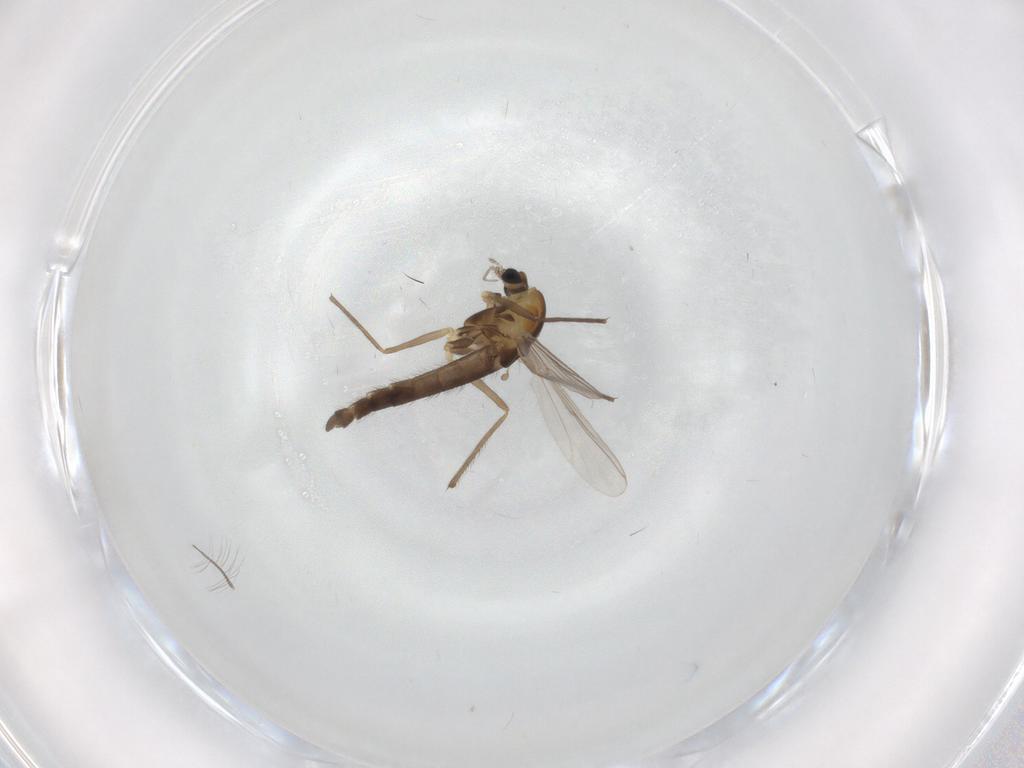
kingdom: Animalia
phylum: Arthropoda
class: Insecta
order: Diptera
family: Chironomidae
